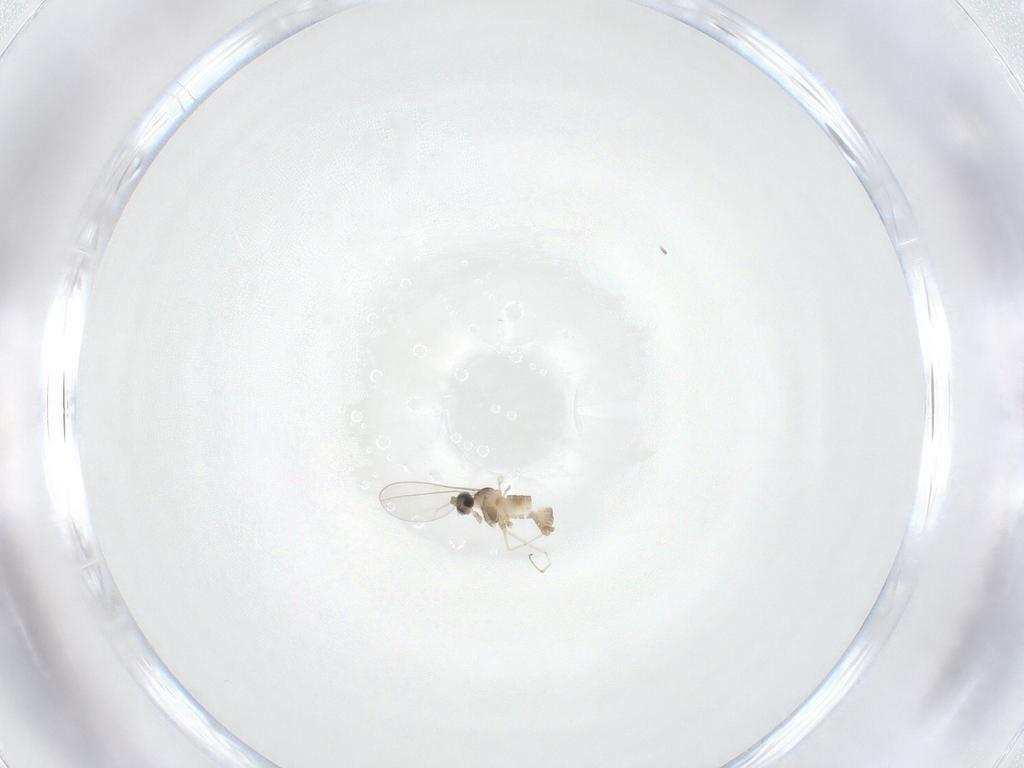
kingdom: Animalia
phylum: Arthropoda
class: Insecta
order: Diptera
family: Cecidomyiidae
